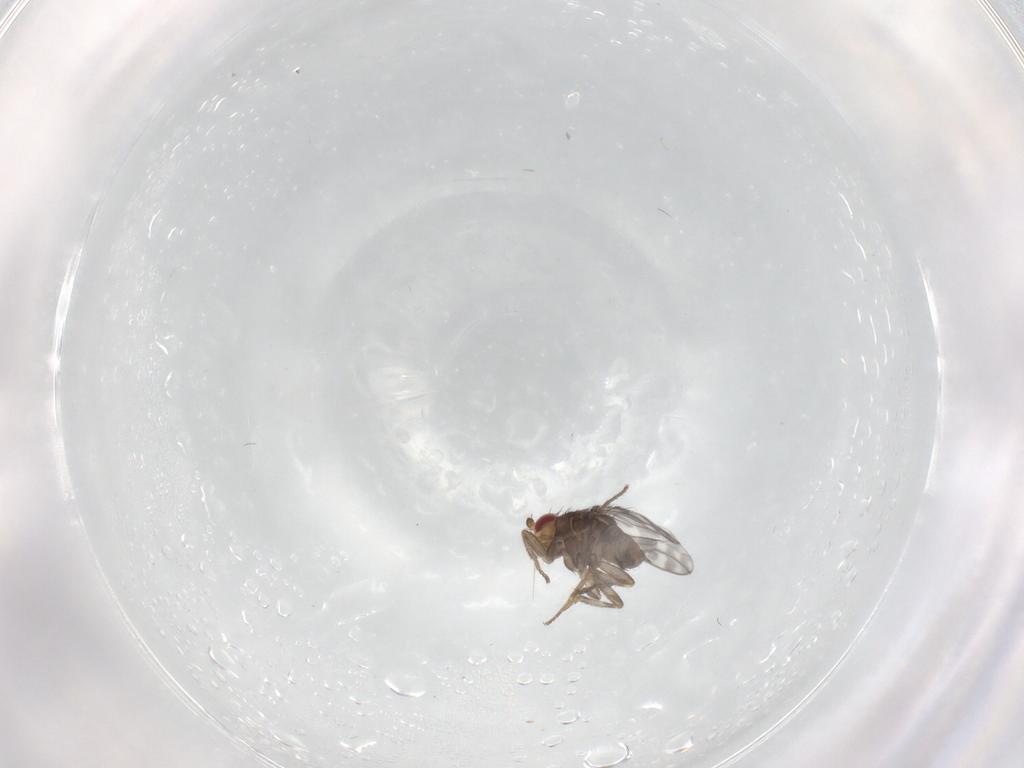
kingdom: Animalia
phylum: Arthropoda
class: Insecta
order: Diptera
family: Sphaeroceridae
